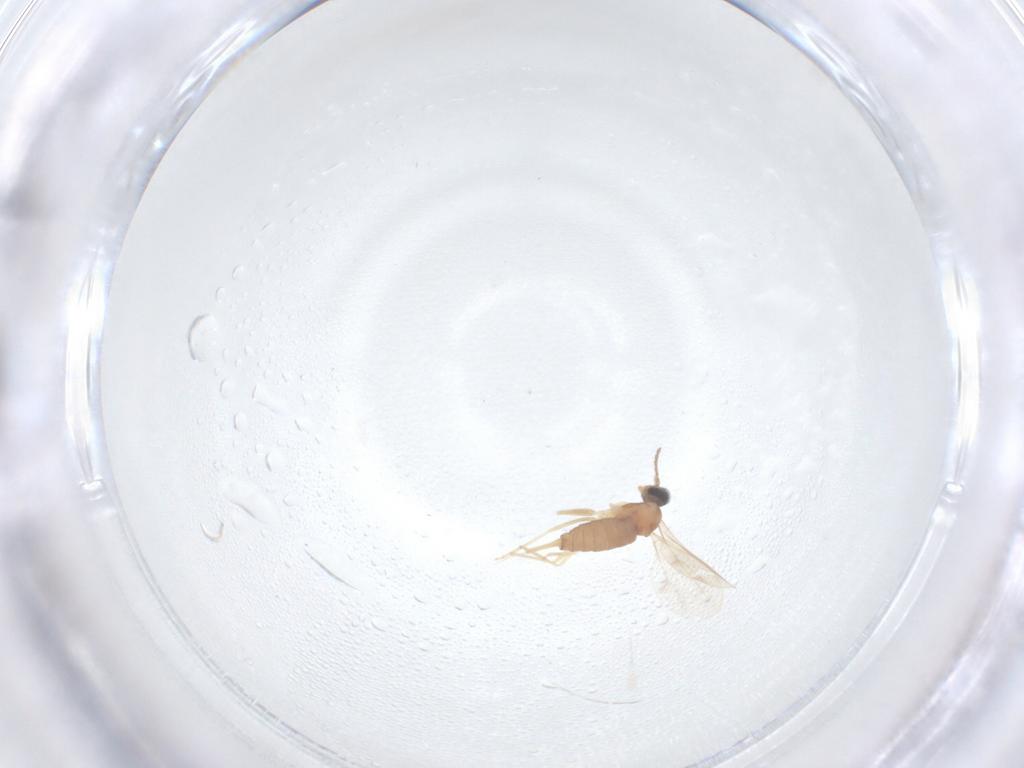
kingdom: Animalia
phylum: Arthropoda
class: Insecta
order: Diptera
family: Cecidomyiidae
